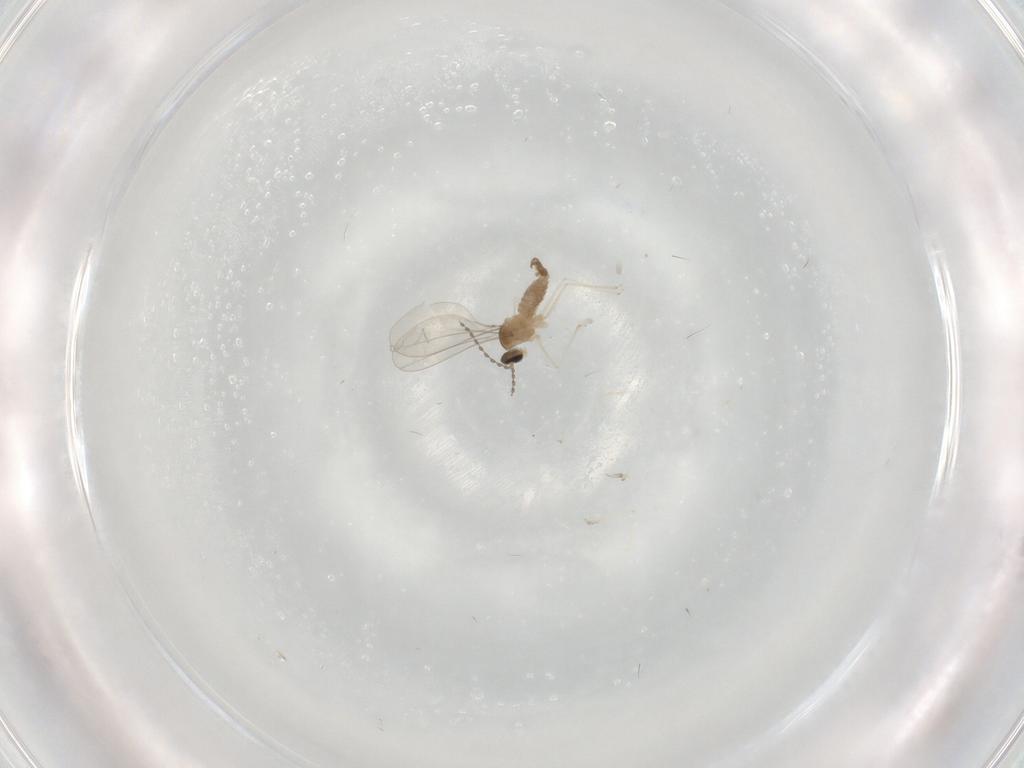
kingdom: Animalia
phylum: Arthropoda
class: Insecta
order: Diptera
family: Cecidomyiidae
